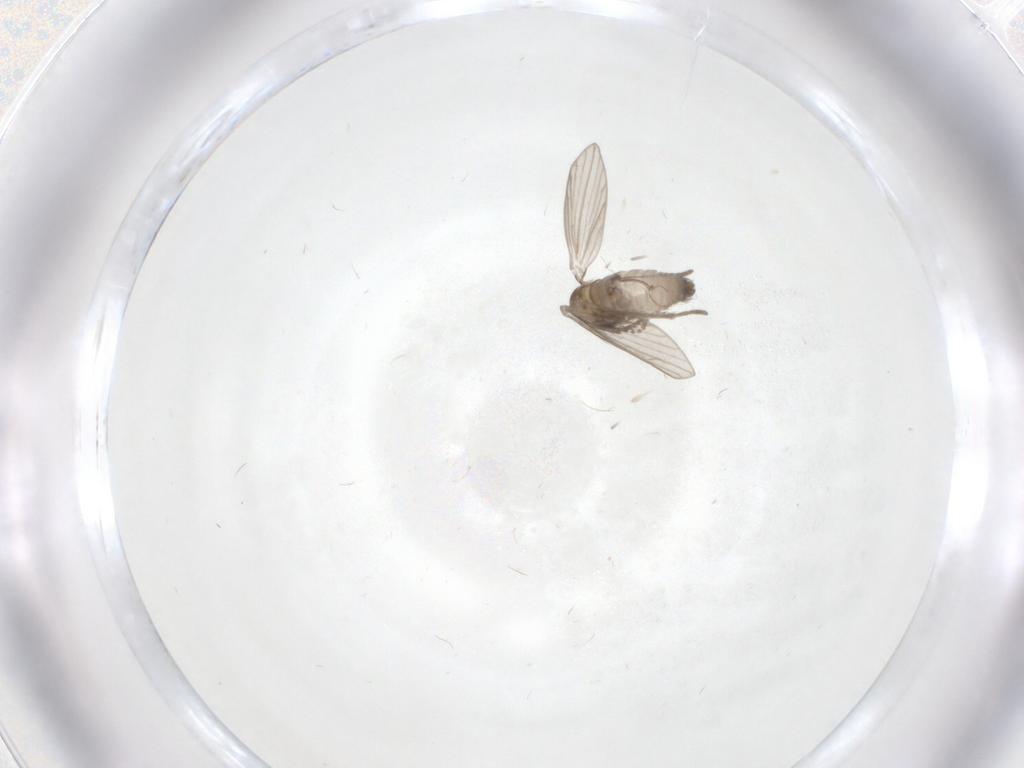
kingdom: Animalia
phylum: Arthropoda
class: Insecta
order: Diptera
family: Psychodidae
